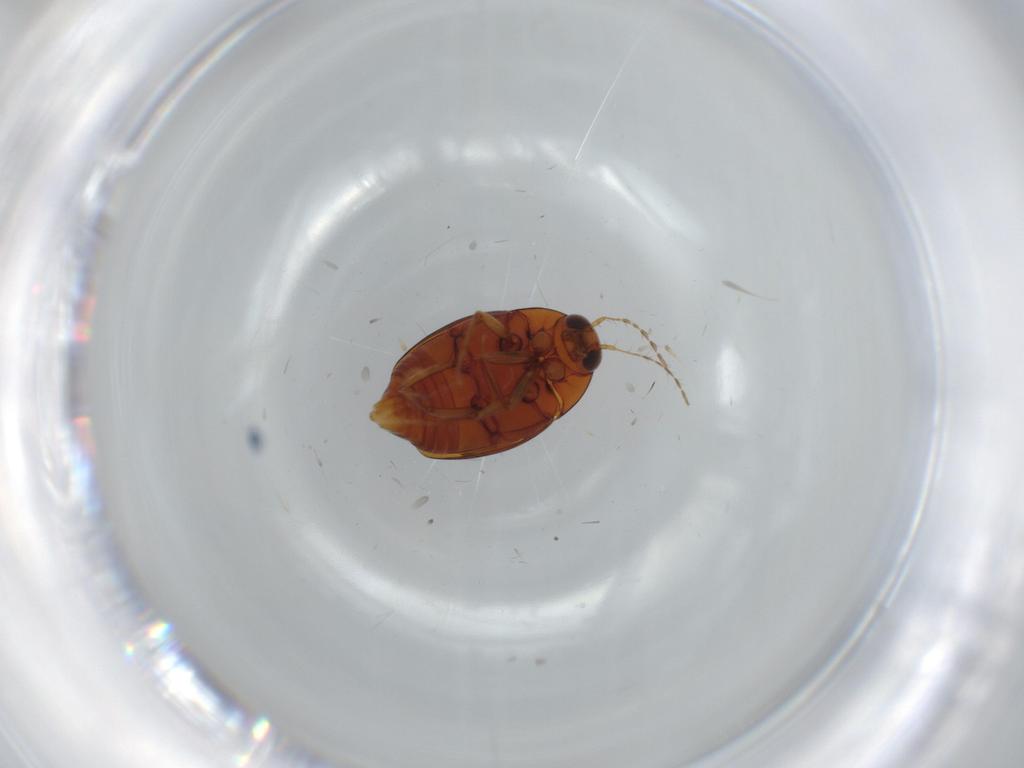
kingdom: Animalia
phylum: Arthropoda
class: Insecta
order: Coleoptera
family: Staphylinidae
